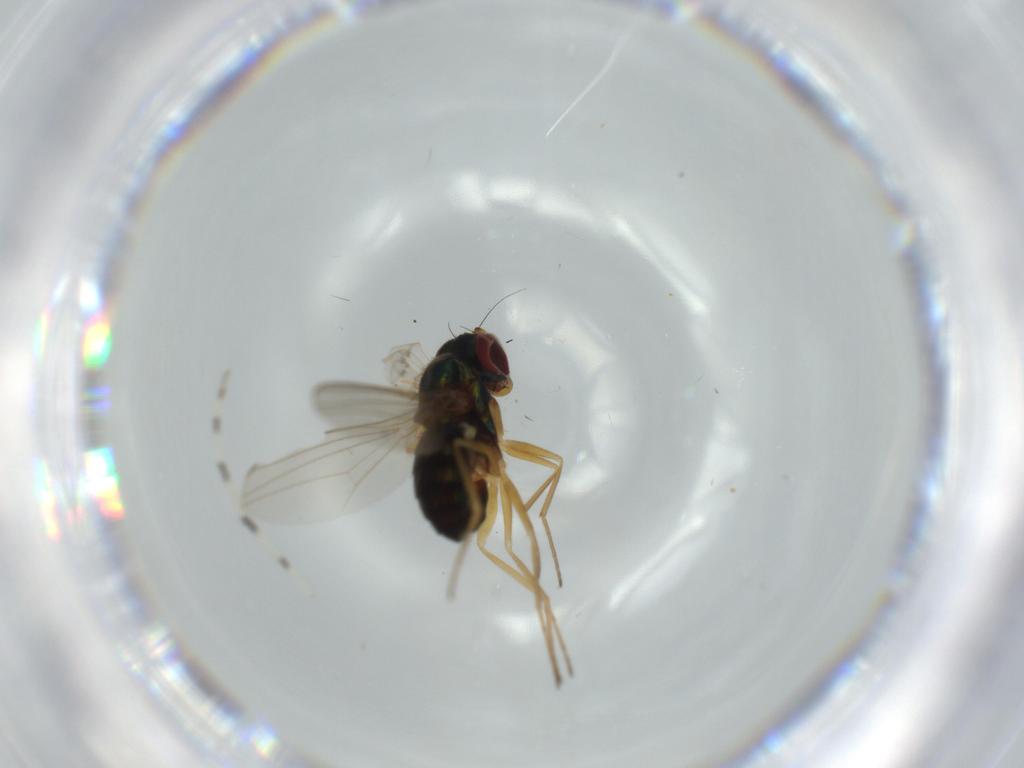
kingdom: Animalia
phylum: Arthropoda
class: Insecta
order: Diptera
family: Dolichopodidae
